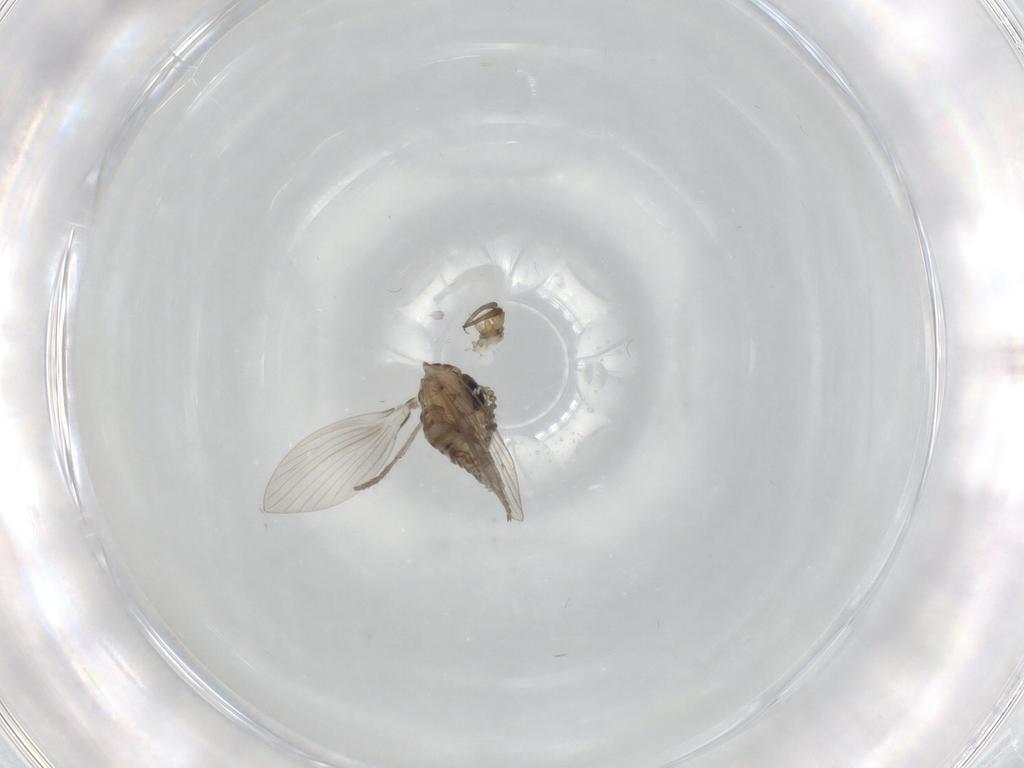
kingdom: Animalia
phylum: Arthropoda
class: Insecta
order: Diptera
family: Drosophilidae
